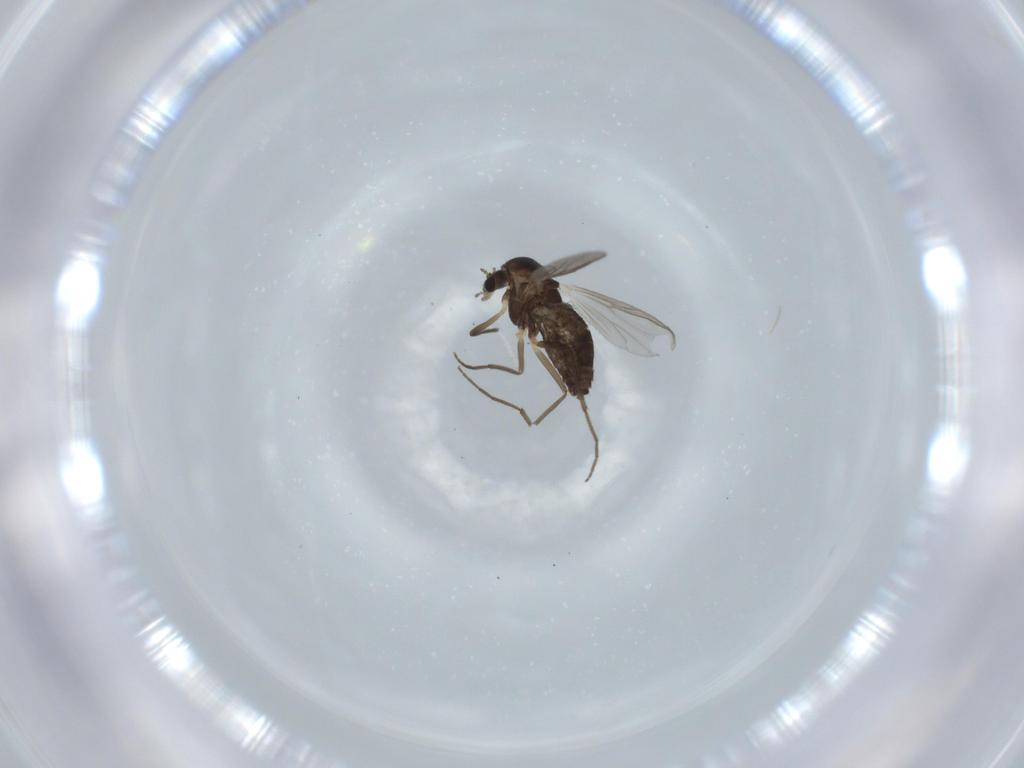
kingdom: Animalia
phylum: Arthropoda
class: Insecta
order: Diptera
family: Chironomidae
